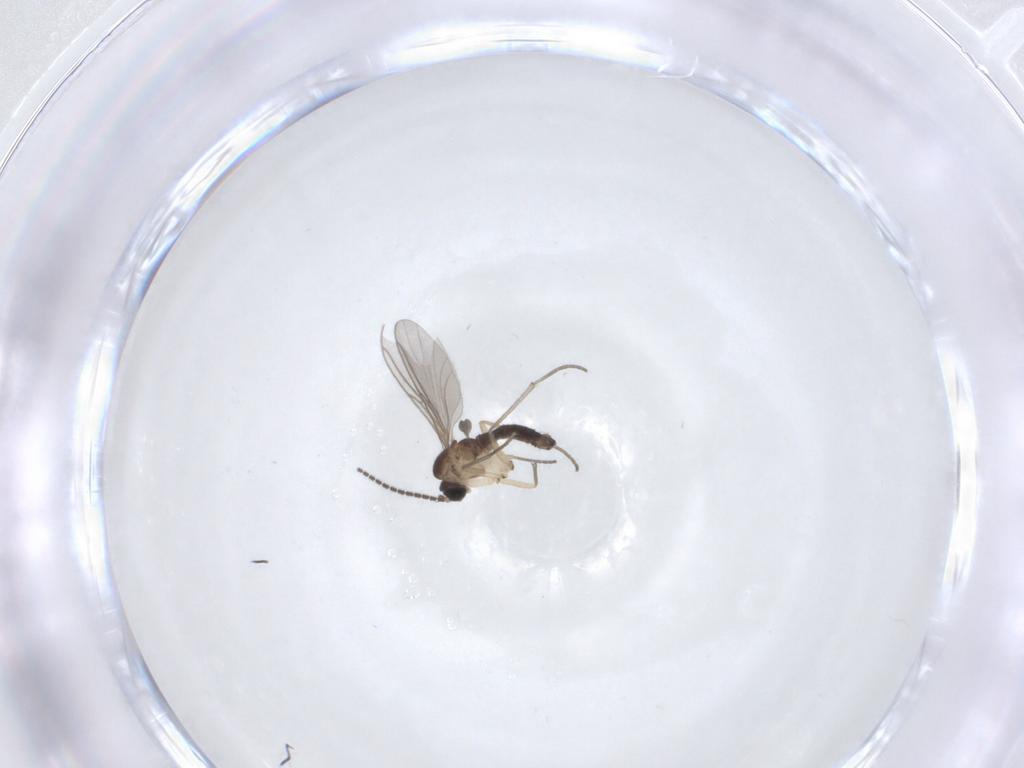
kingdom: Animalia
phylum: Arthropoda
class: Insecta
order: Diptera
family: Sciaridae
